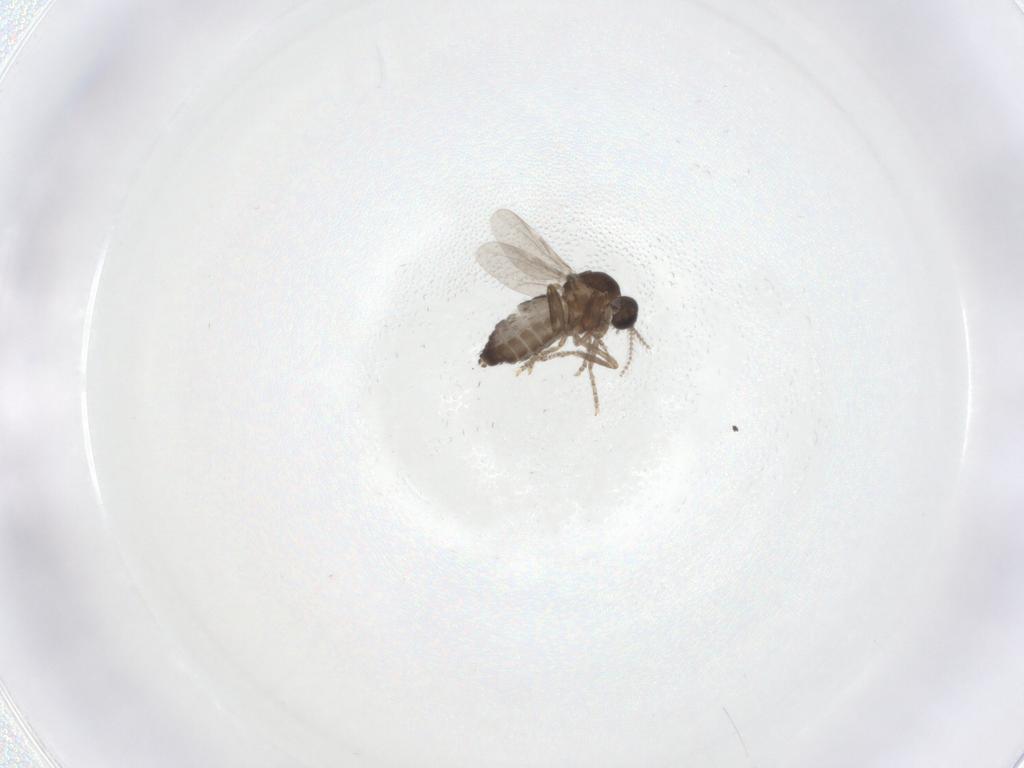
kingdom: Animalia
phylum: Arthropoda
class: Insecta
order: Diptera
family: Ceratopogonidae
